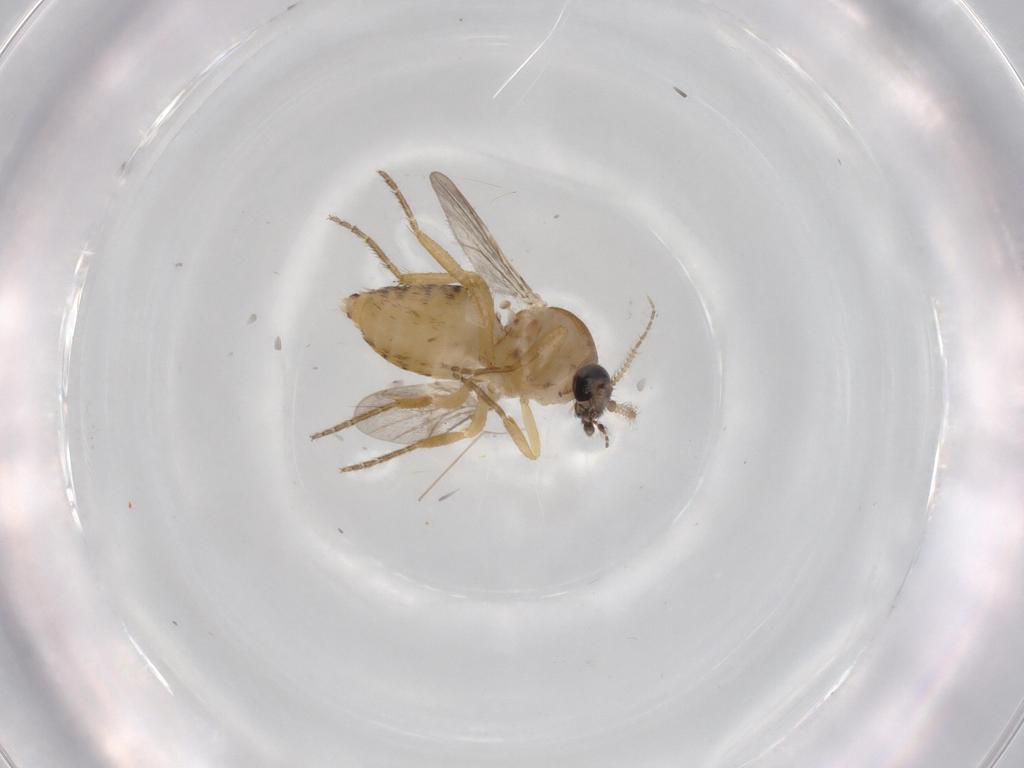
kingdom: Animalia
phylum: Arthropoda
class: Insecta
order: Diptera
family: Ceratopogonidae
